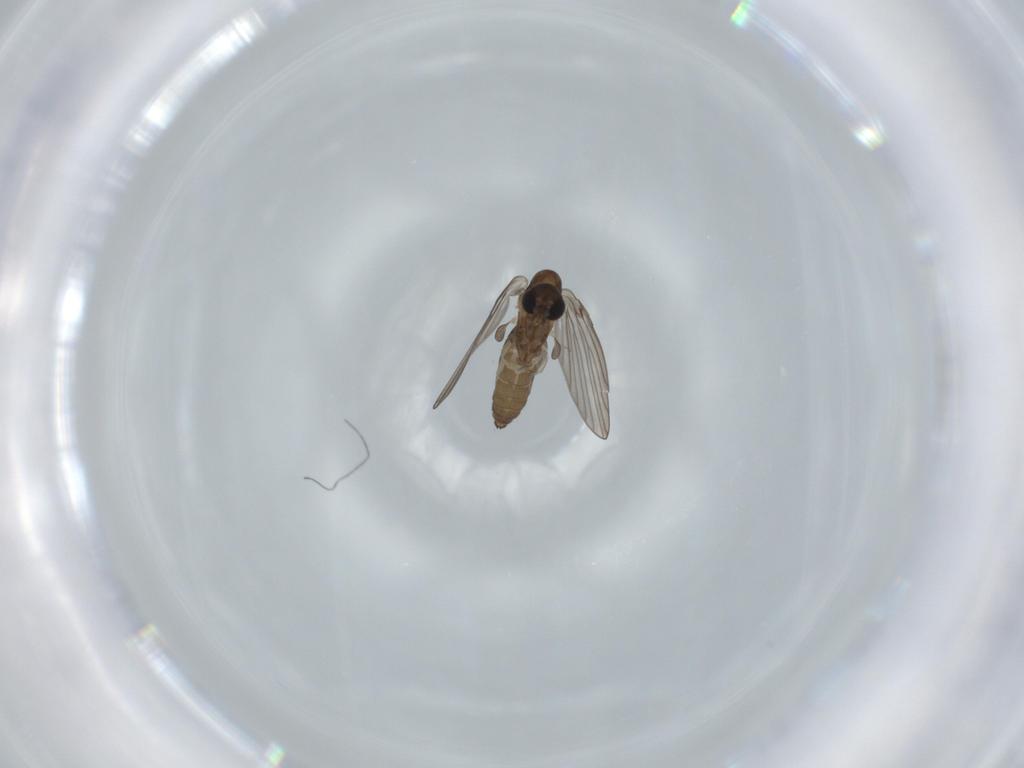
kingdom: Animalia
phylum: Arthropoda
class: Insecta
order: Diptera
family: Psychodidae
